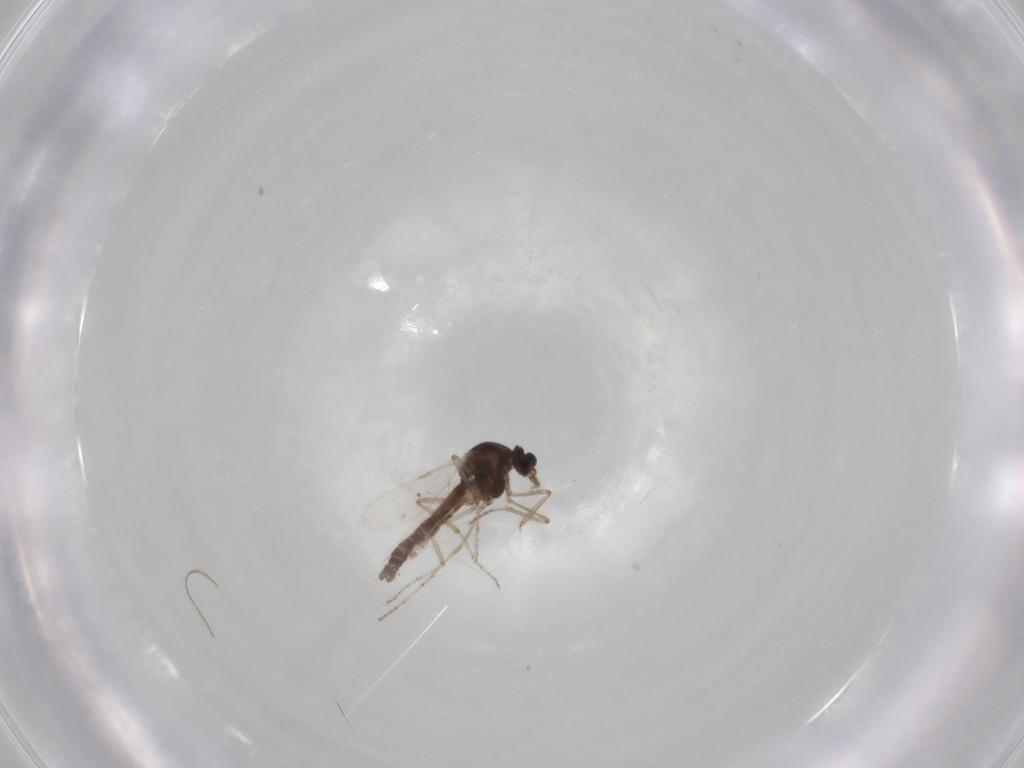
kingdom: Animalia
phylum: Arthropoda
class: Insecta
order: Diptera
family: Ceratopogonidae
